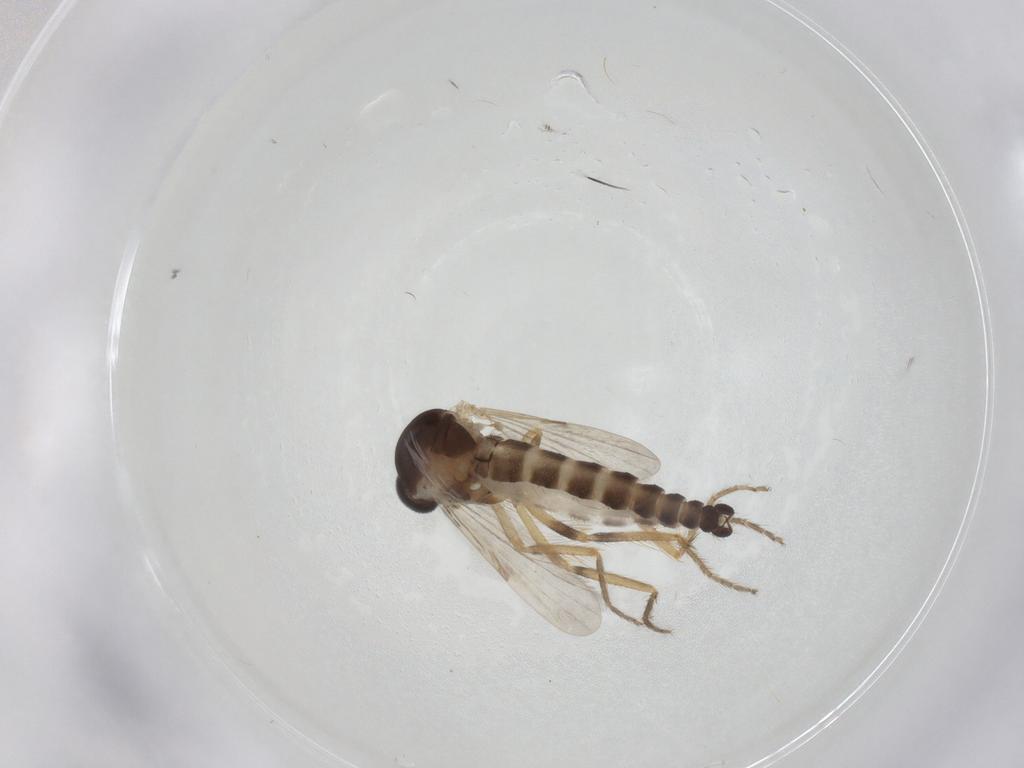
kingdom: Animalia
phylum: Arthropoda
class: Insecta
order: Diptera
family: Ceratopogonidae
